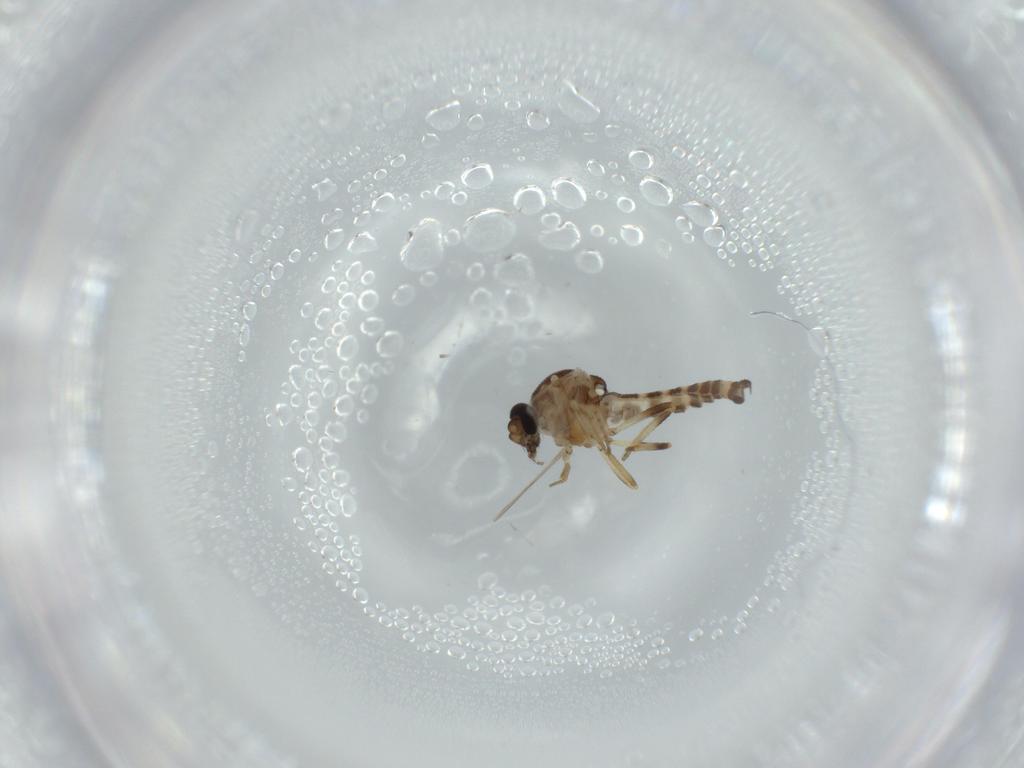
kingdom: Animalia
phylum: Arthropoda
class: Insecta
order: Diptera
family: Ceratopogonidae
